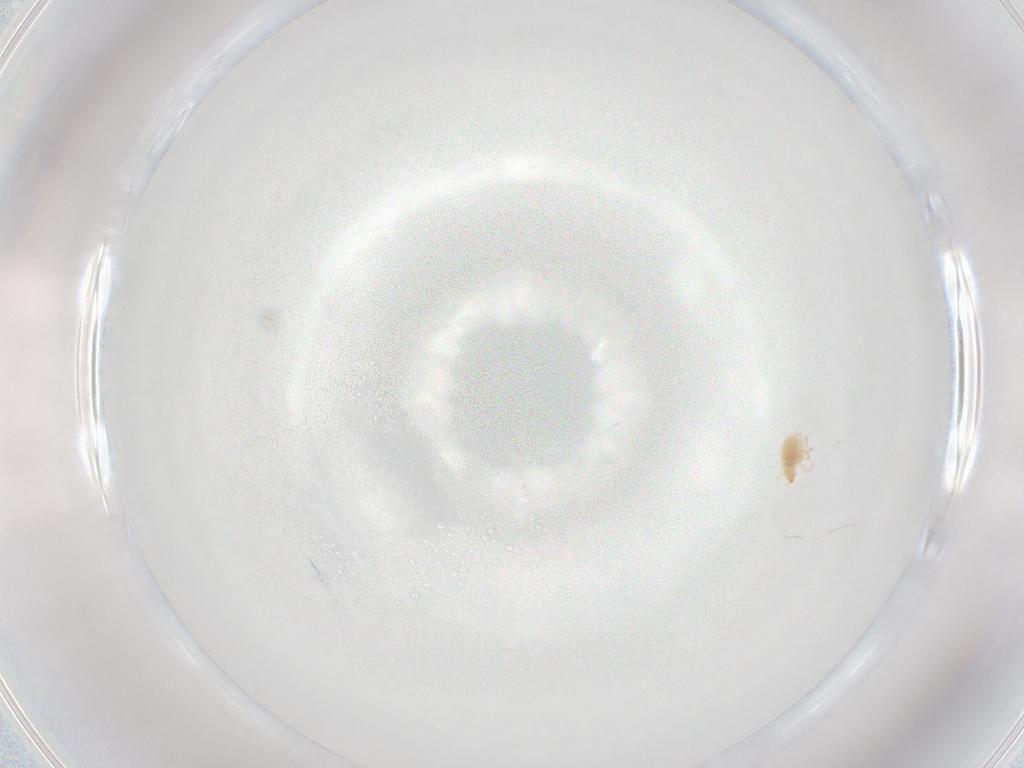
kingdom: Animalia
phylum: Arthropoda
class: Arachnida
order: Trombidiformes
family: Bdellidae
